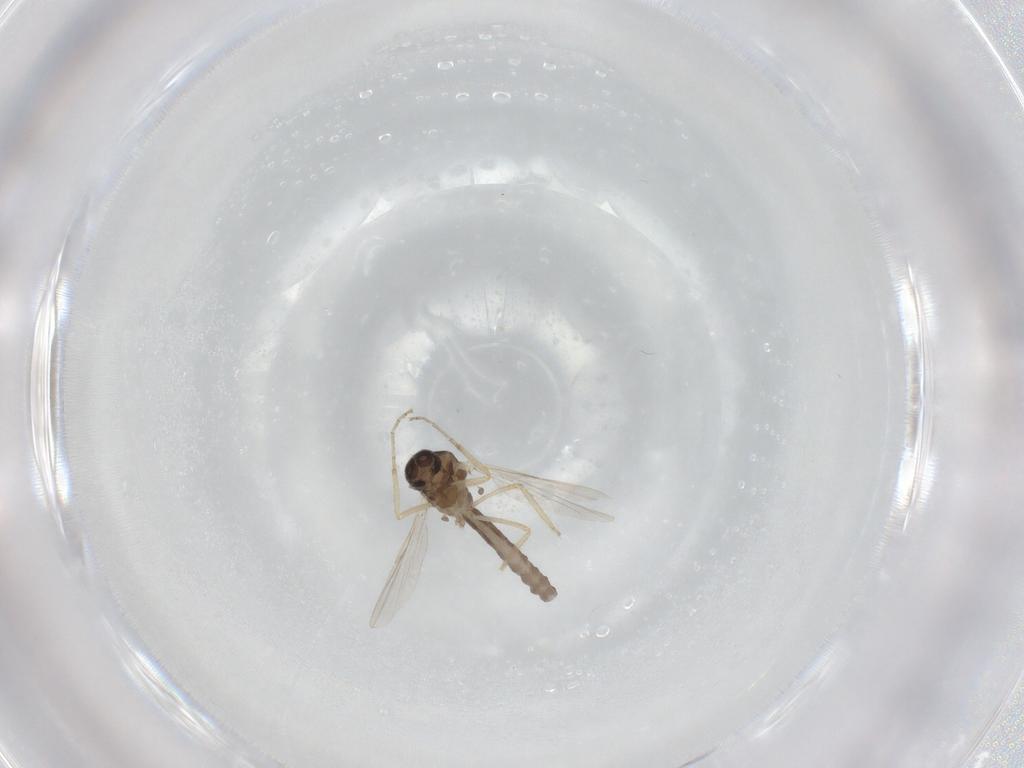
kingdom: Animalia
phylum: Arthropoda
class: Insecta
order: Diptera
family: Ceratopogonidae
